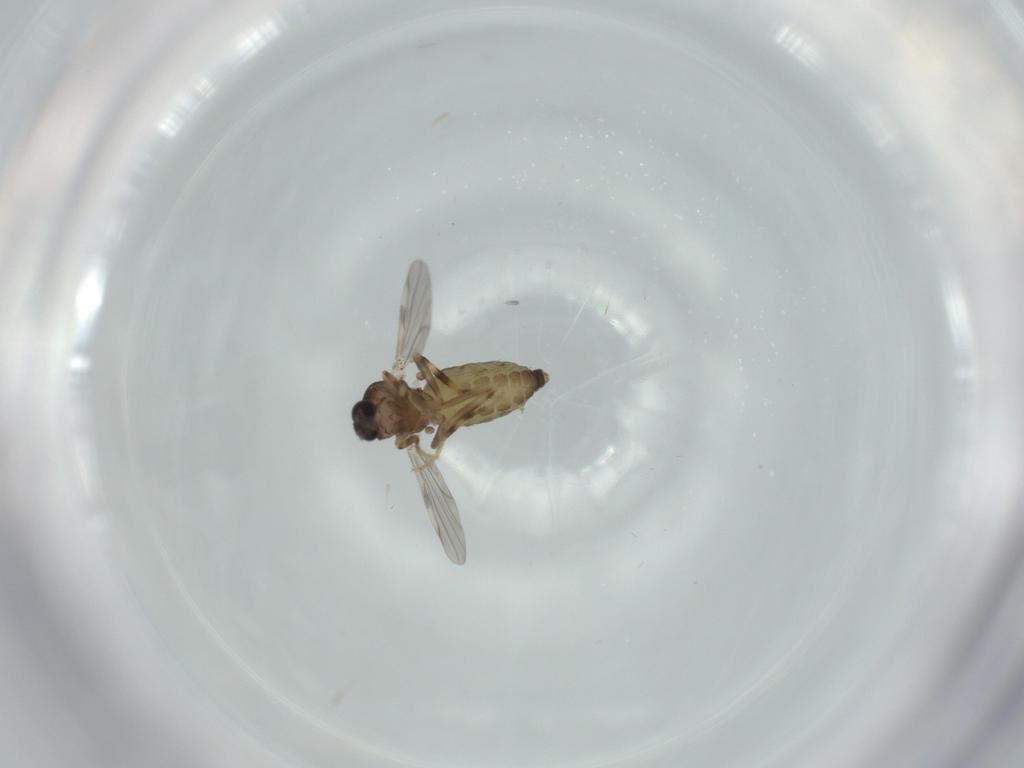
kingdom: Animalia
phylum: Arthropoda
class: Insecta
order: Diptera
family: Ceratopogonidae
